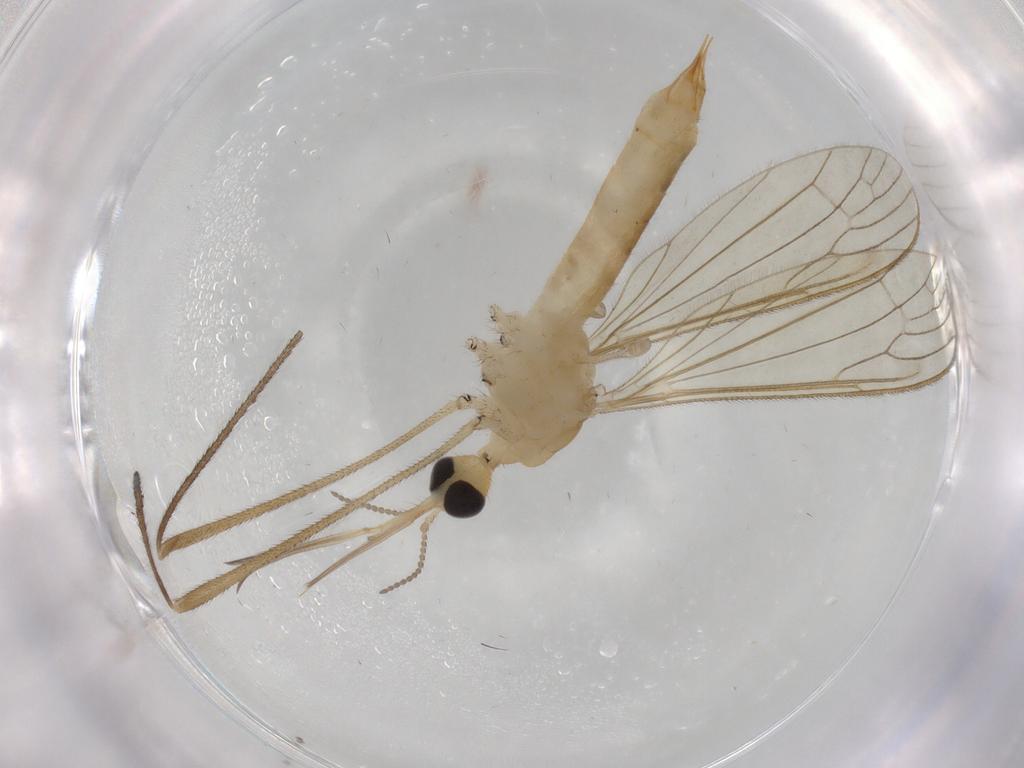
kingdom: Animalia
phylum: Arthropoda
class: Insecta
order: Diptera
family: Limoniidae
